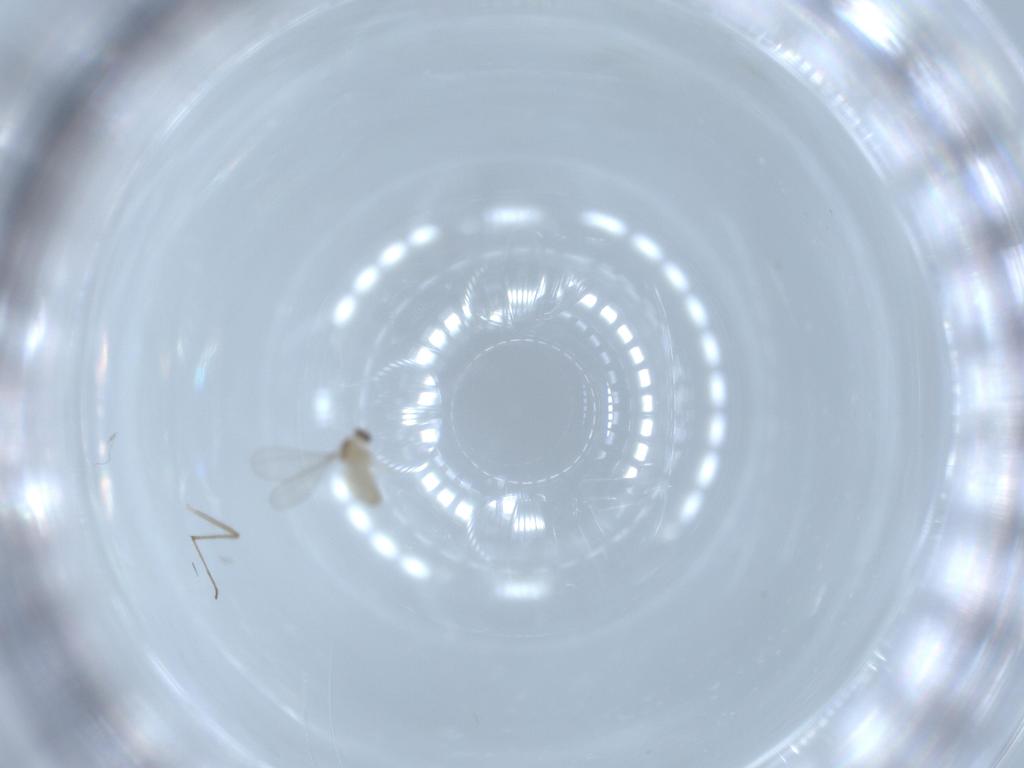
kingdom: Animalia
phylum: Arthropoda
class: Insecta
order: Diptera
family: Cecidomyiidae
